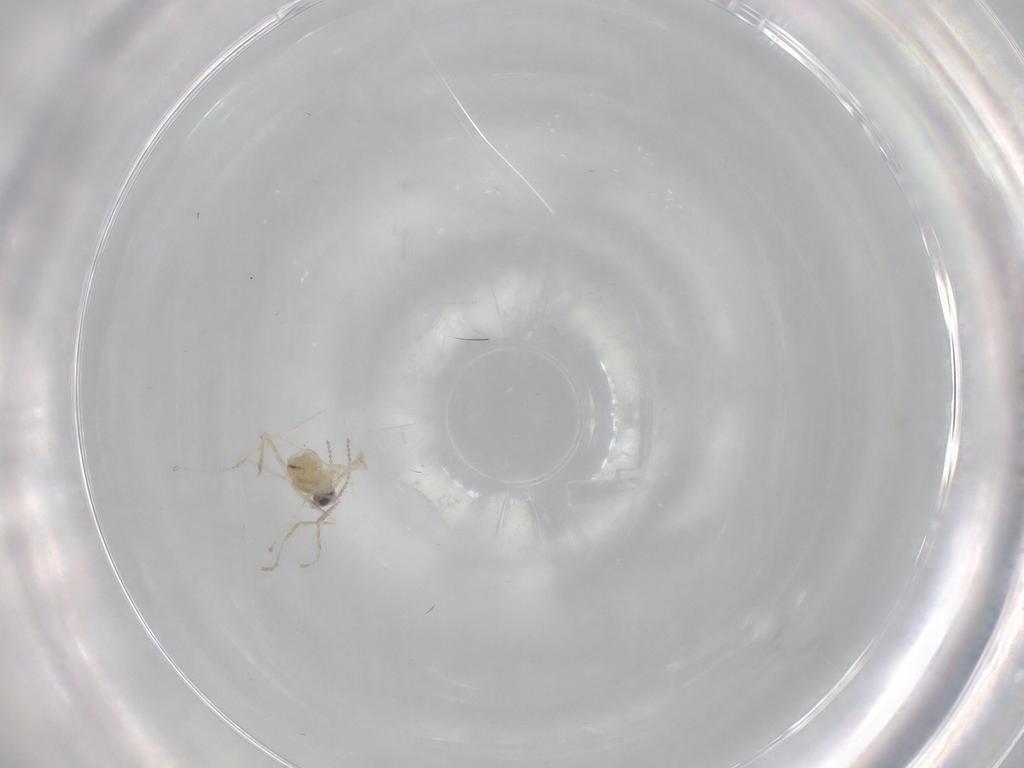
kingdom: Animalia
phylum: Arthropoda
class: Insecta
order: Diptera
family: Cecidomyiidae
